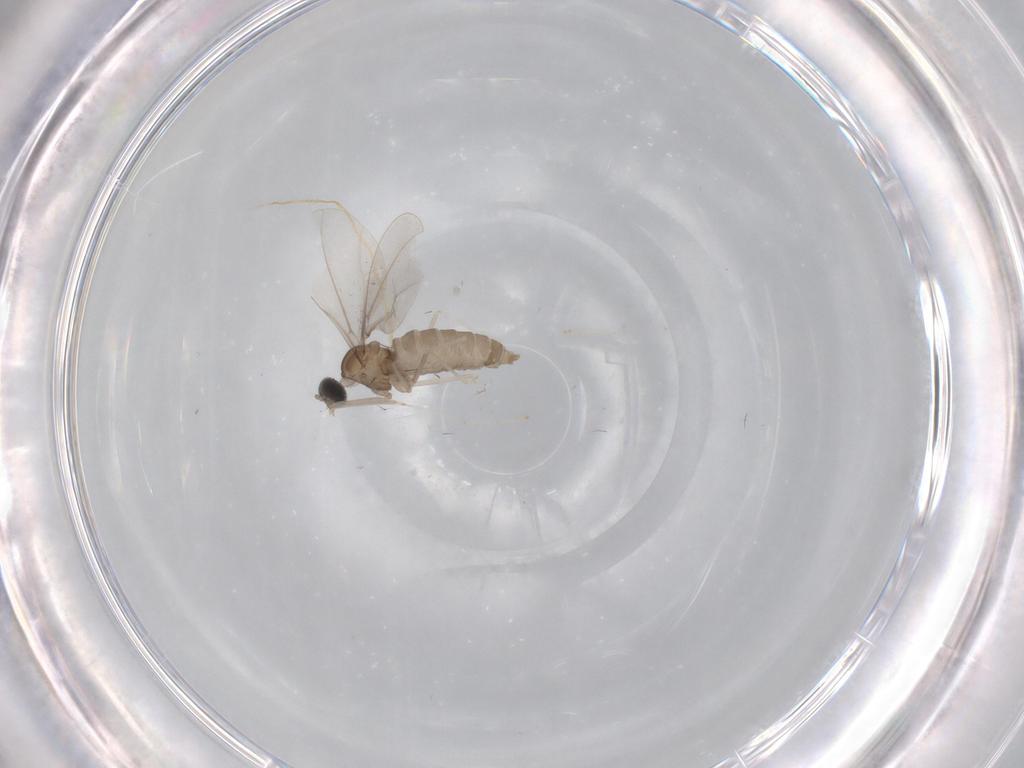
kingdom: Animalia
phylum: Arthropoda
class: Insecta
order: Diptera
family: Cecidomyiidae
